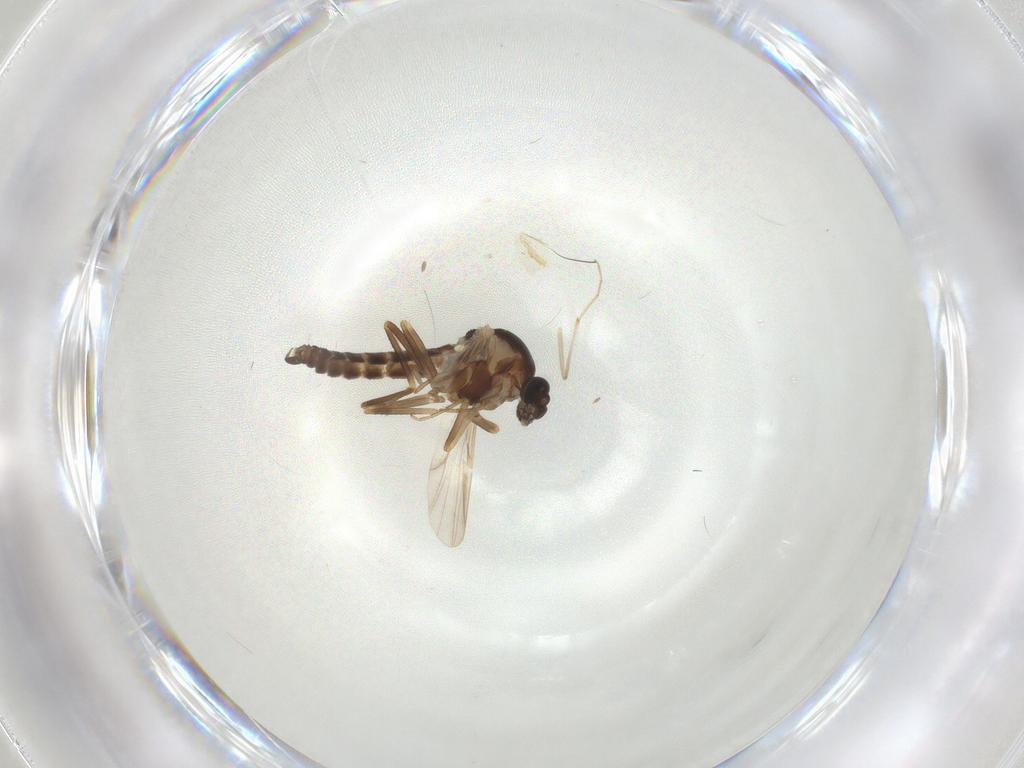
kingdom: Animalia
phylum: Arthropoda
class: Insecta
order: Diptera
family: Ceratopogonidae
